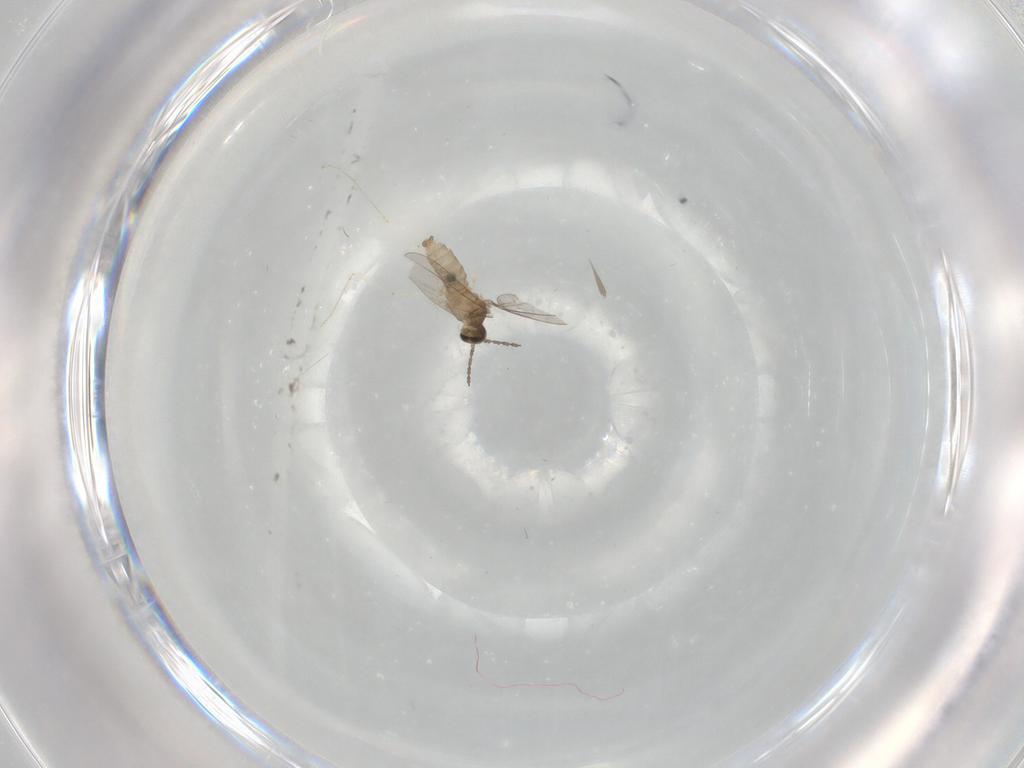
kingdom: Animalia
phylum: Arthropoda
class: Insecta
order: Diptera
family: Cecidomyiidae
